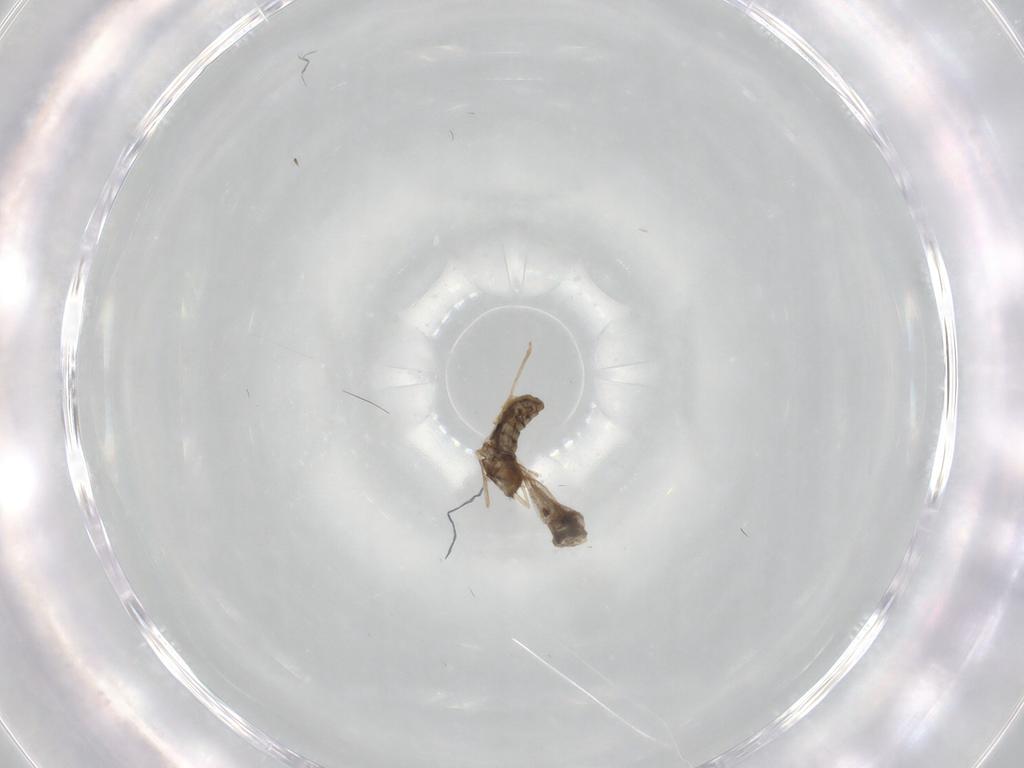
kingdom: Animalia
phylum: Arthropoda
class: Insecta
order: Diptera
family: Cecidomyiidae
